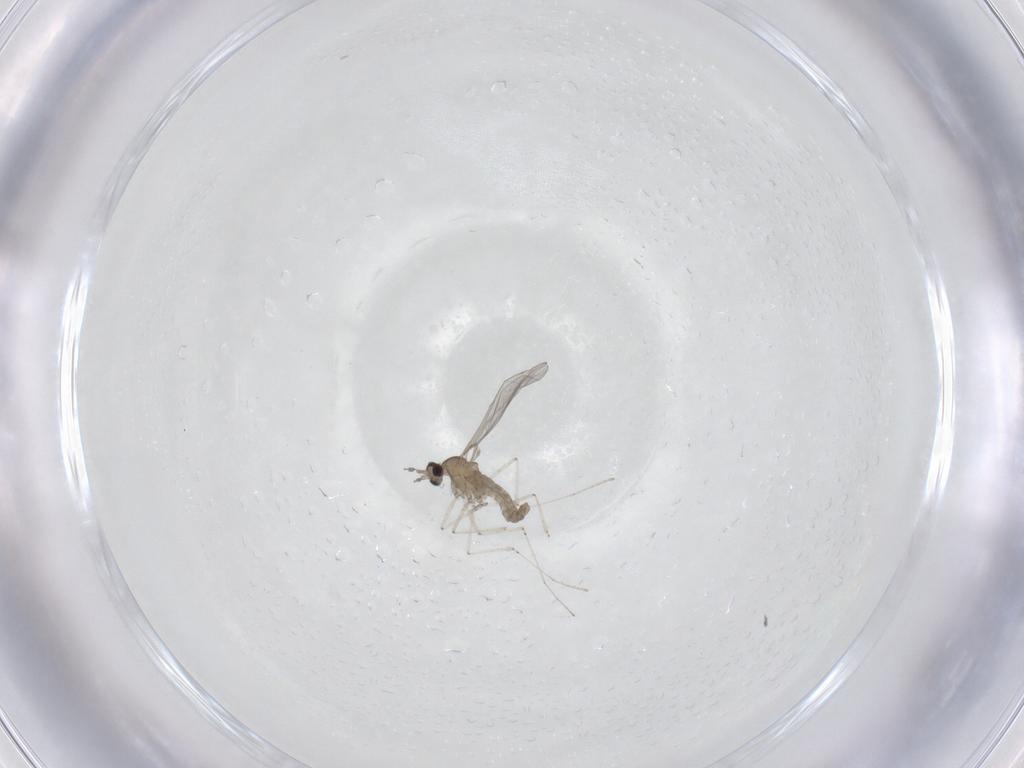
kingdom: Animalia
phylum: Arthropoda
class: Insecta
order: Diptera
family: Cecidomyiidae
